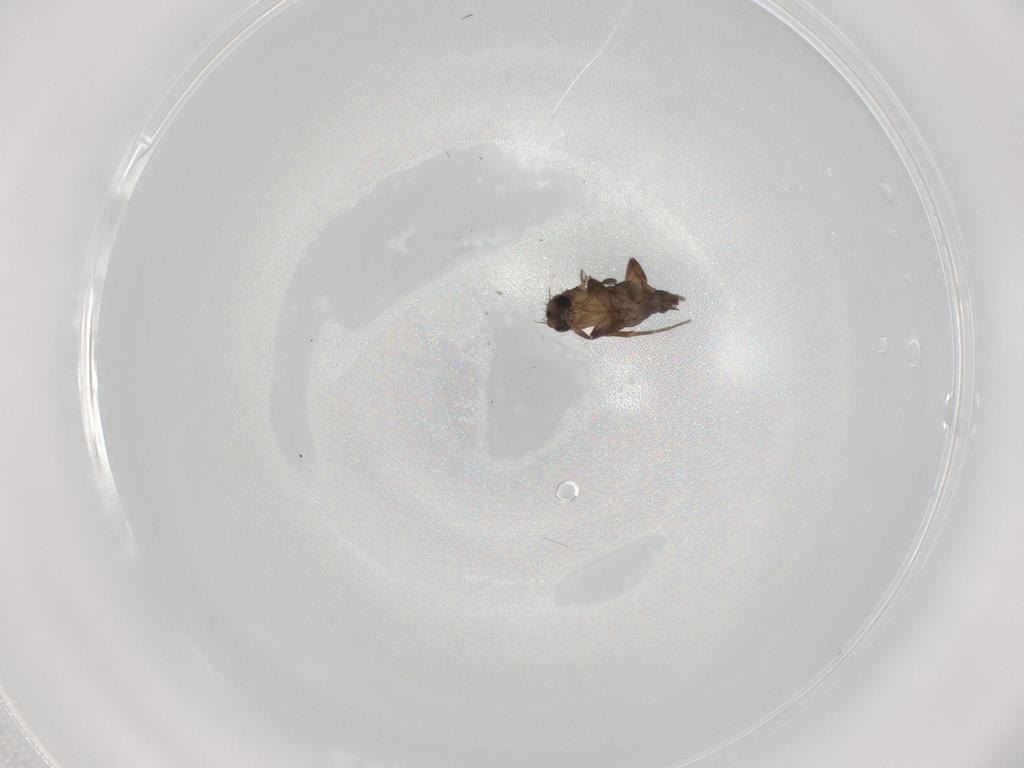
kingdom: Animalia
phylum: Arthropoda
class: Insecta
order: Diptera
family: Phoridae
